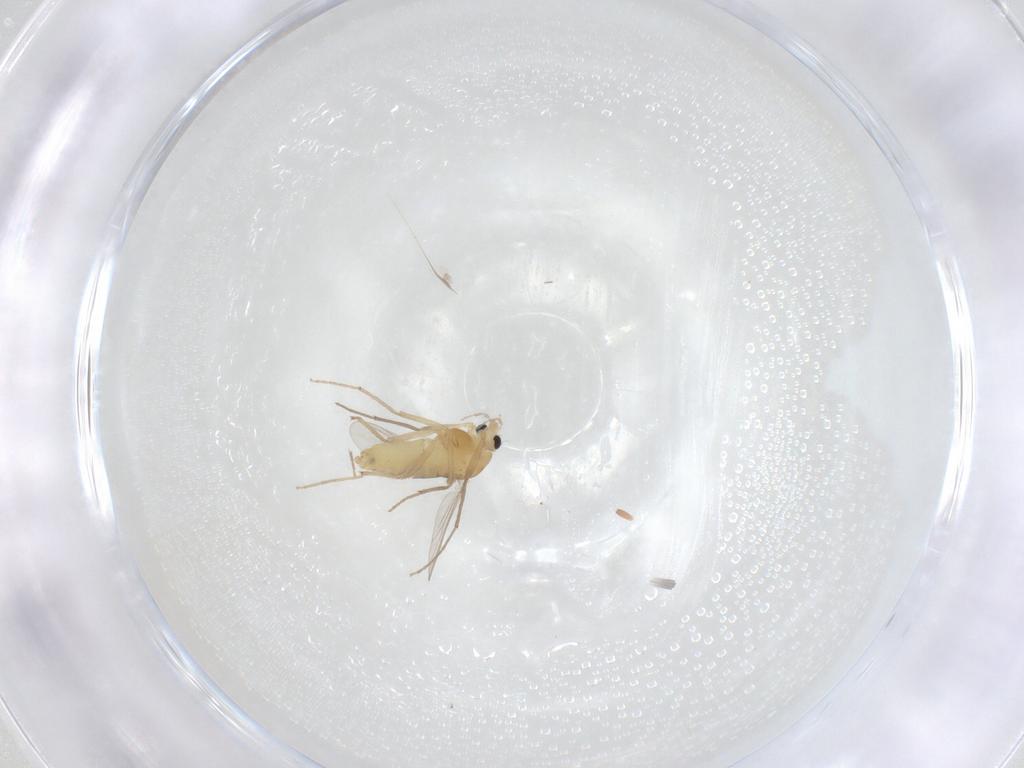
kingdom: Animalia
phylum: Arthropoda
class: Insecta
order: Diptera
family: Chironomidae
